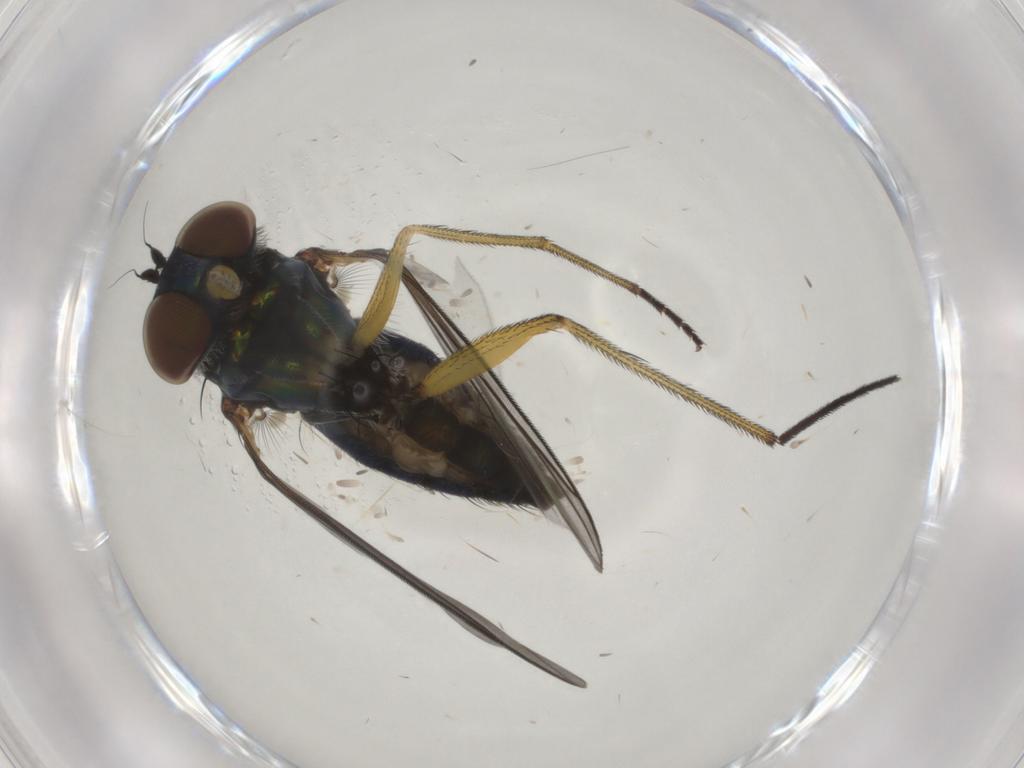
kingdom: Animalia
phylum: Arthropoda
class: Insecta
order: Diptera
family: Dolichopodidae
